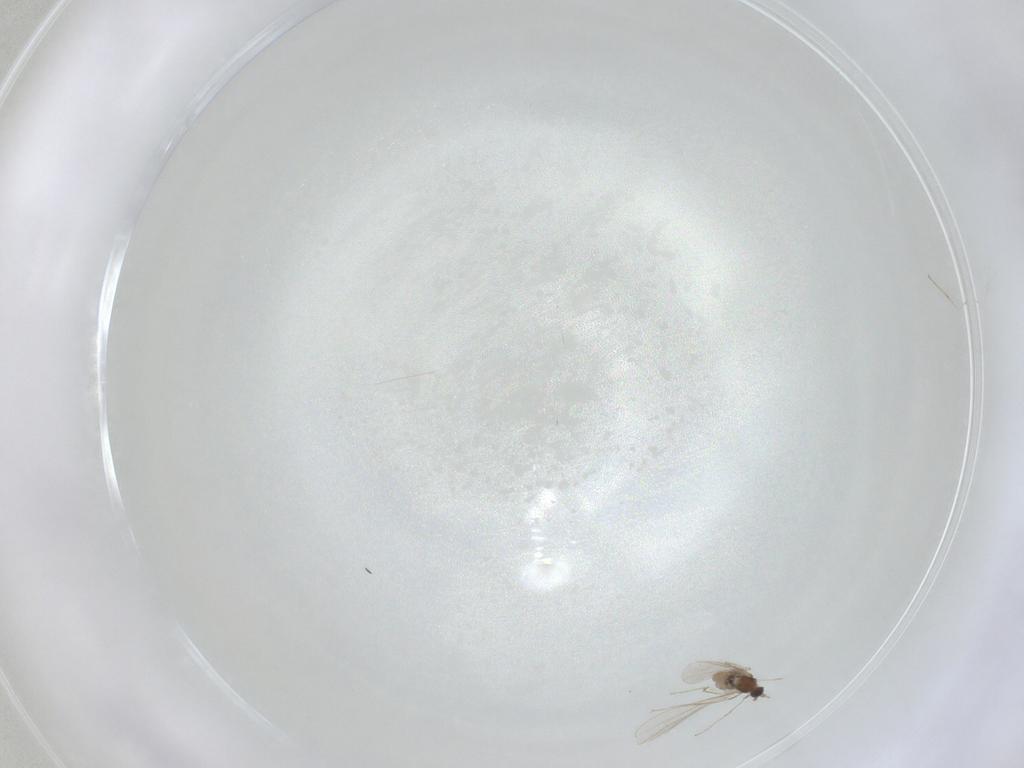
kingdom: Animalia
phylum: Arthropoda
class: Insecta
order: Diptera
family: Cecidomyiidae
